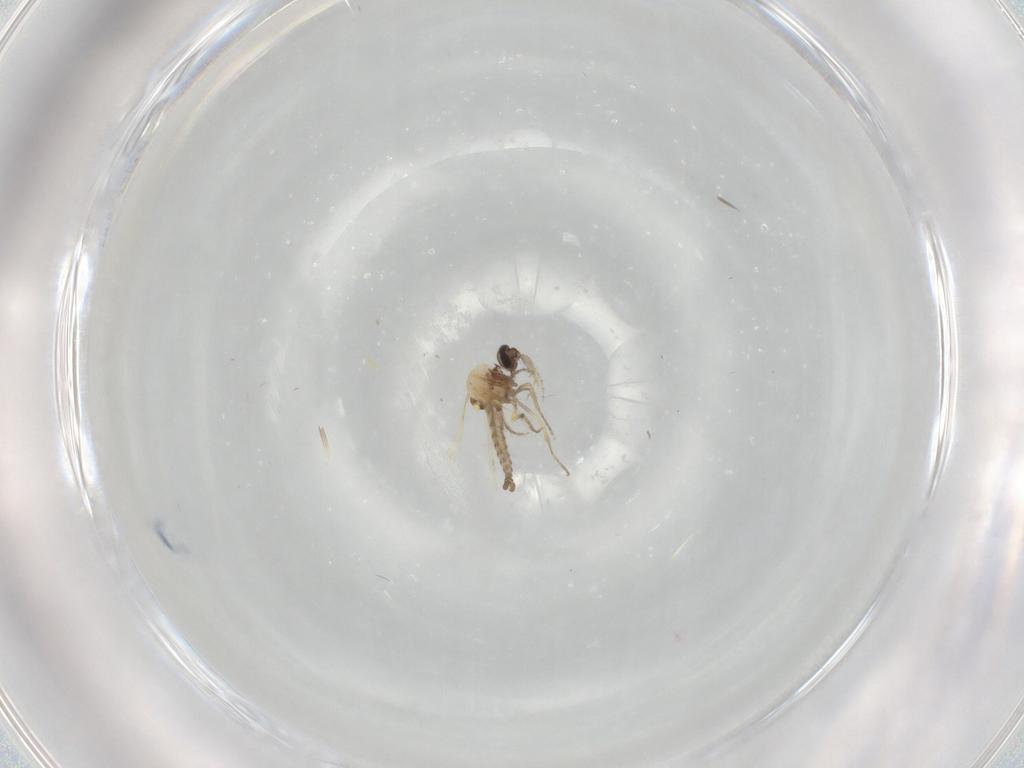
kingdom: Animalia
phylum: Arthropoda
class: Insecta
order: Diptera
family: Ceratopogonidae
